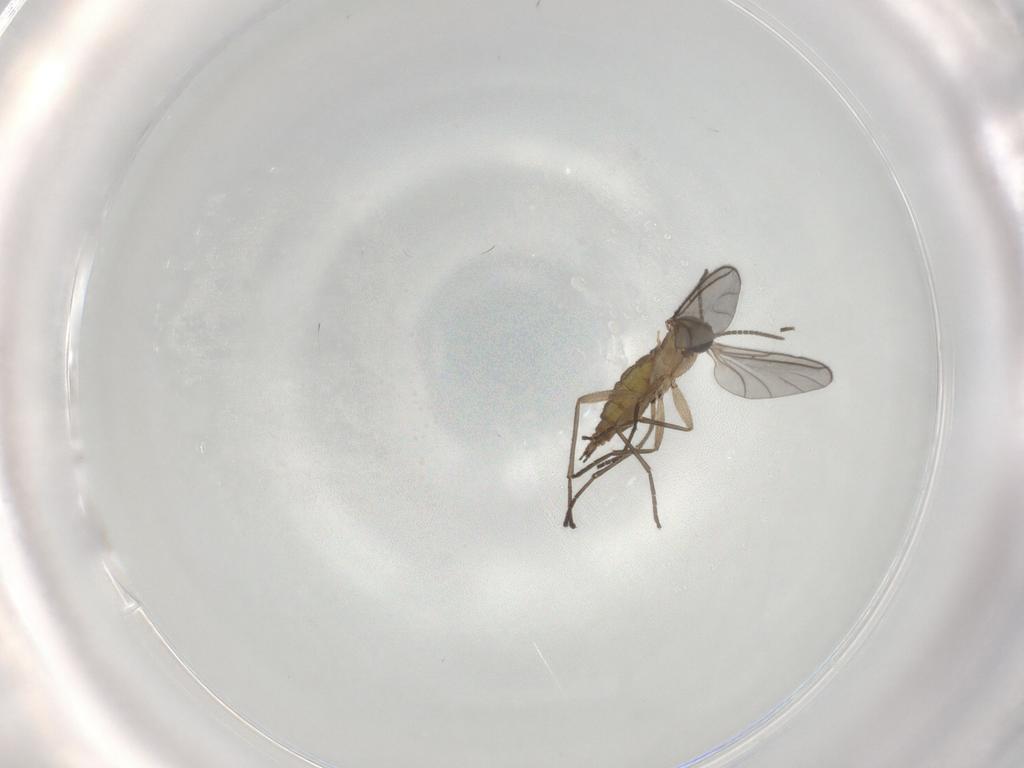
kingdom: Animalia
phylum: Arthropoda
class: Insecta
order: Diptera
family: Sciaridae
